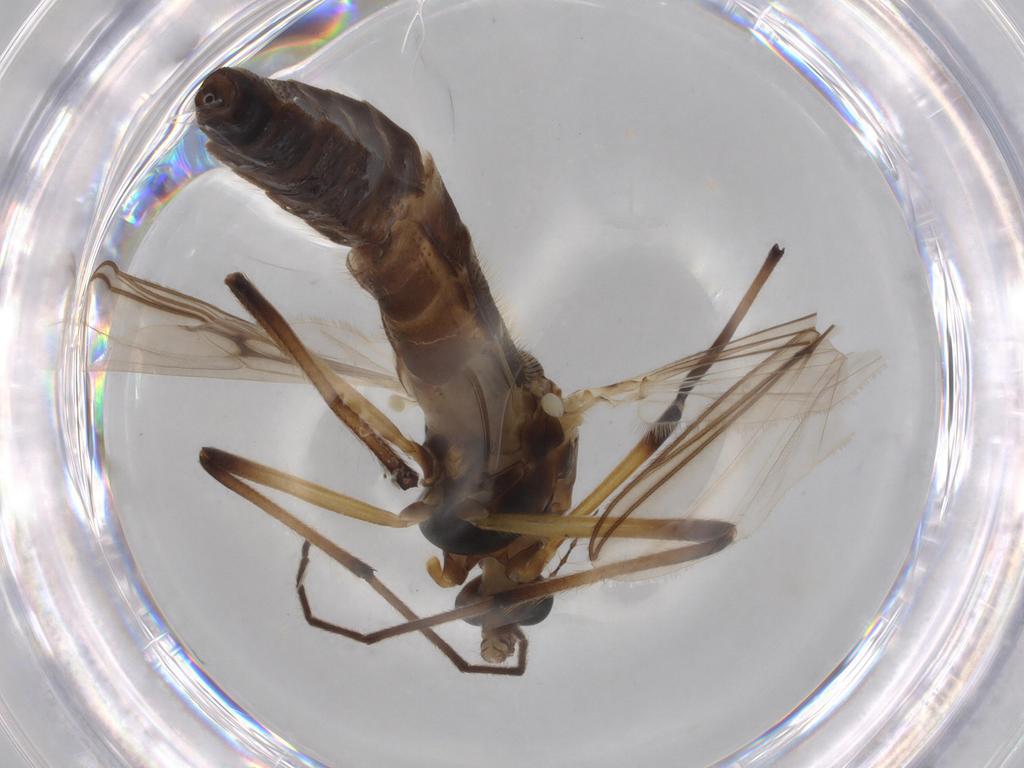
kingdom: Animalia
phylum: Arthropoda
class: Insecta
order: Diptera
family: Chironomidae
